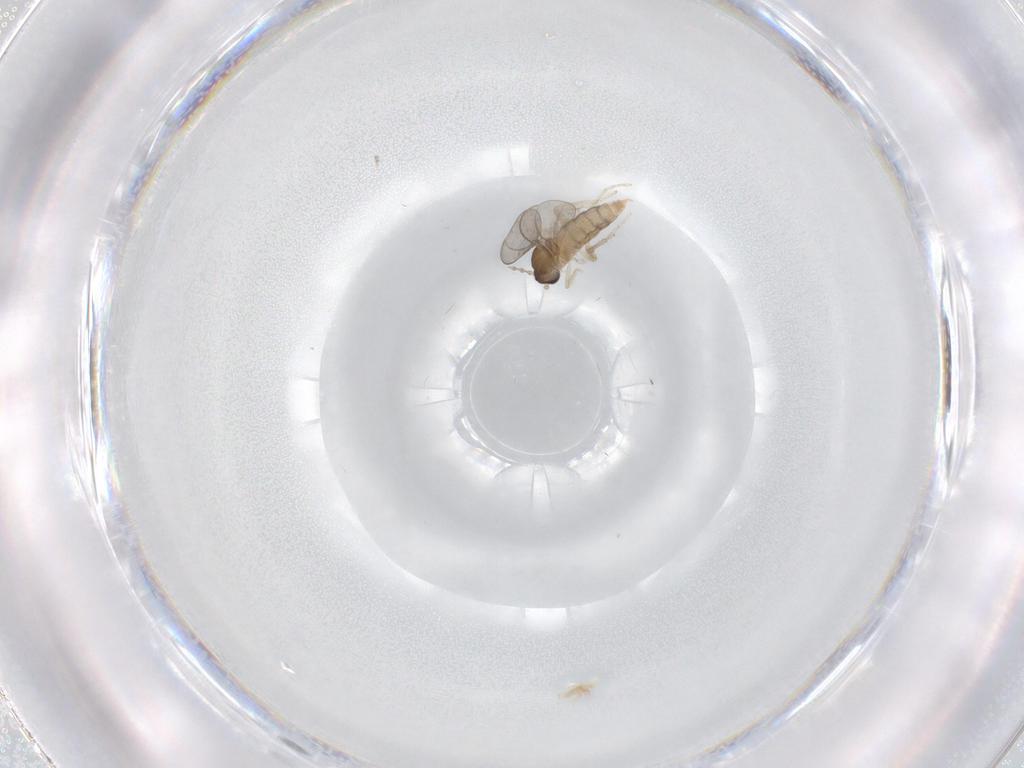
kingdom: Animalia
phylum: Arthropoda
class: Insecta
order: Diptera
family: Cecidomyiidae
